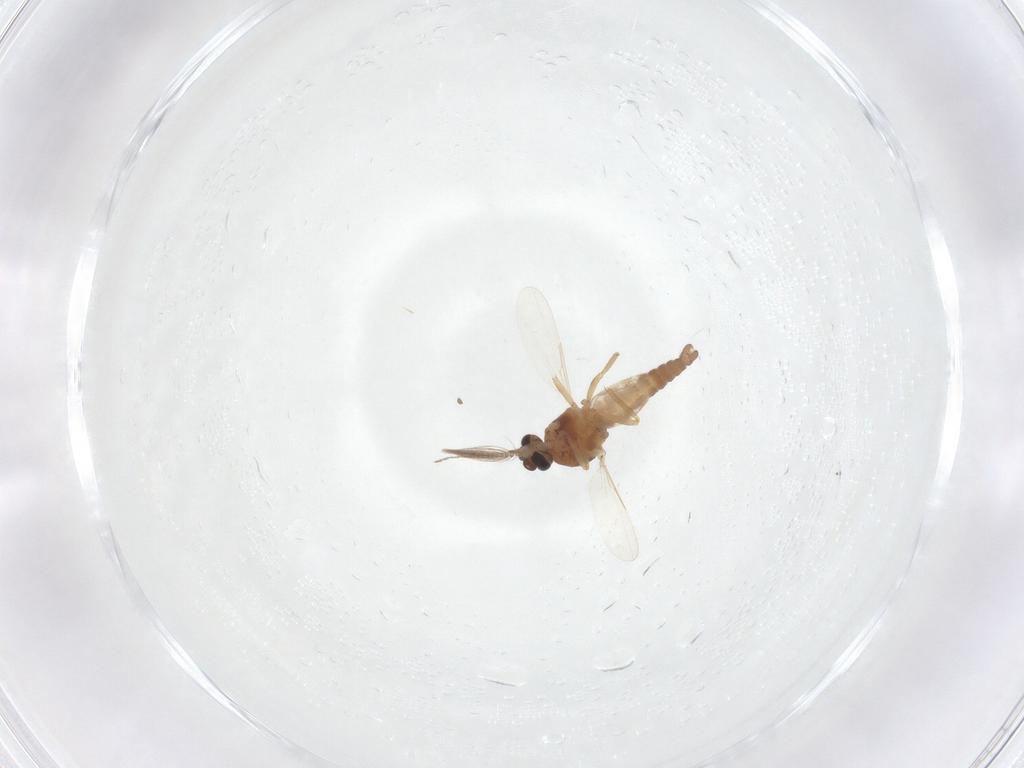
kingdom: Animalia
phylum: Arthropoda
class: Insecta
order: Diptera
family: Ceratopogonidae
